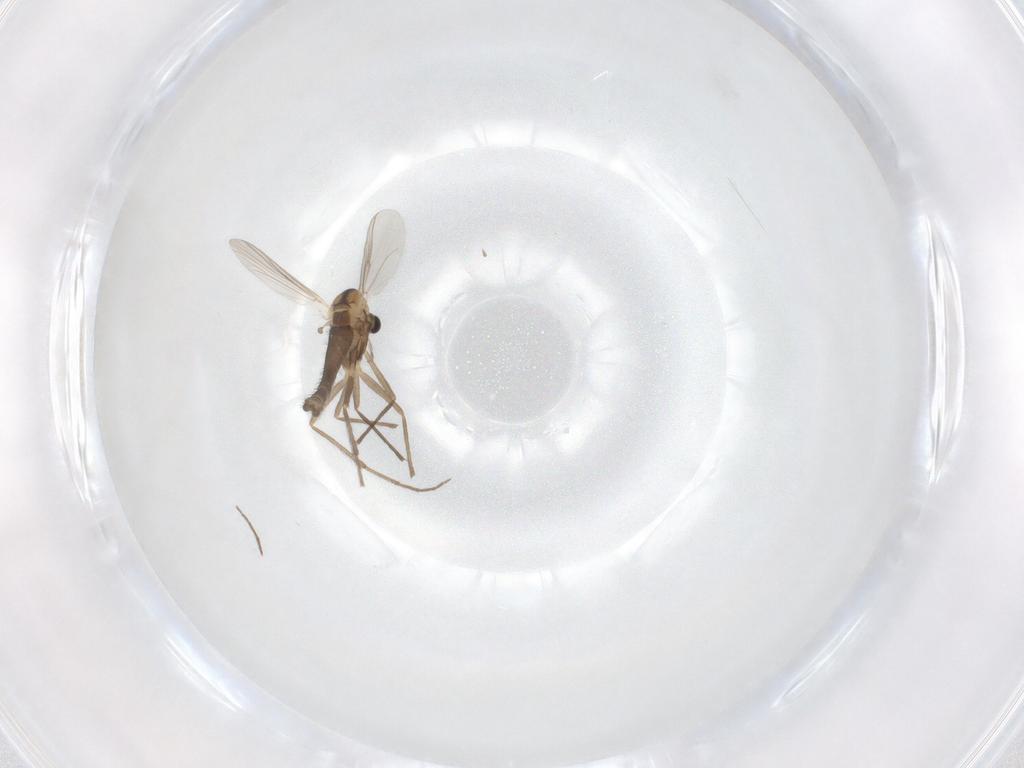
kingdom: Animalia
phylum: Arthropoda
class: Insecta
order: Diptera
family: Chironomidae
